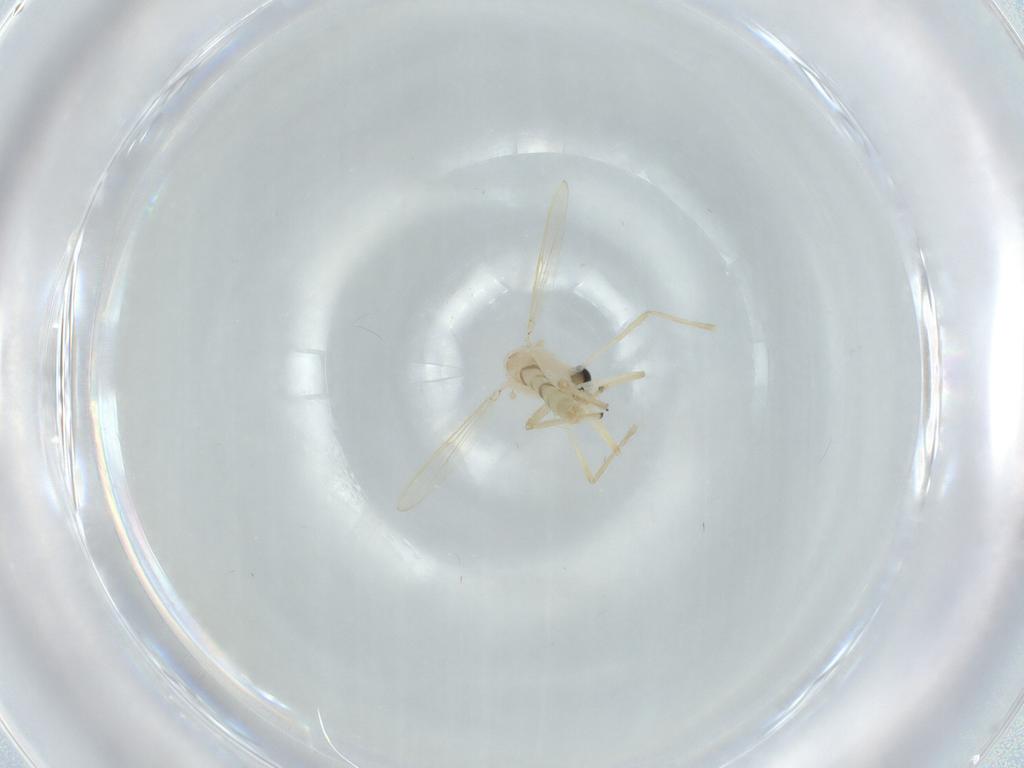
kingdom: Animalia
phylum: Arthropoda
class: Insecta
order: Diptera
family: Chironomidae
